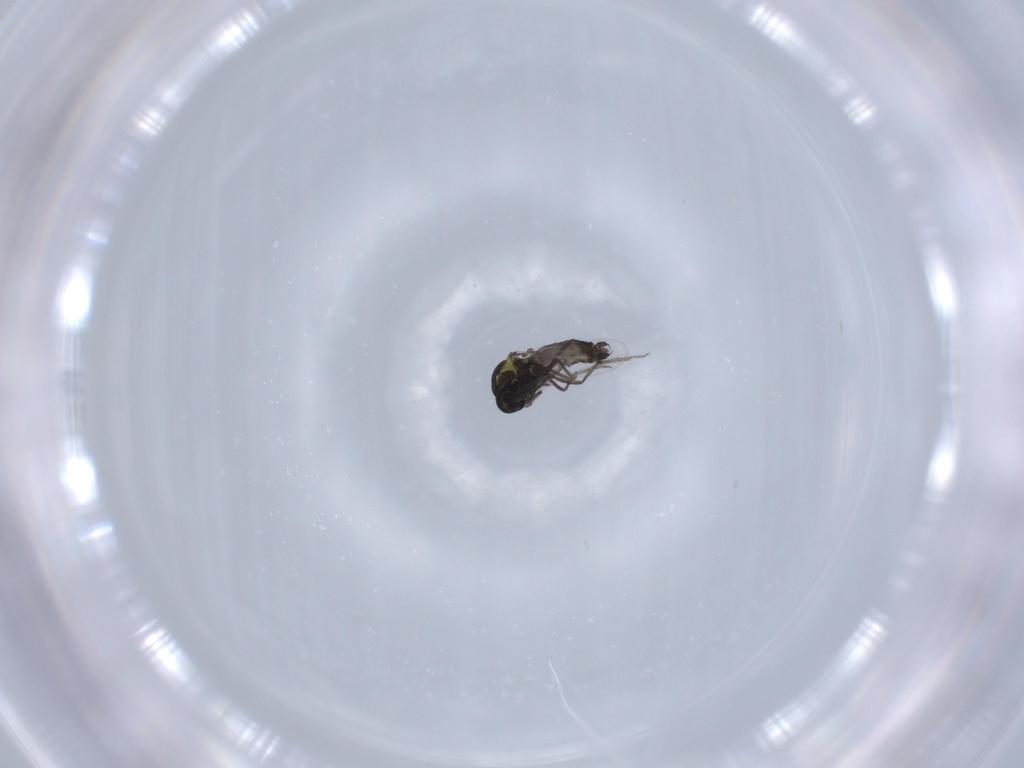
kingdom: Animalia
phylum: Arthropoda
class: Insecta
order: Diptera
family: Ceratopogonidae
